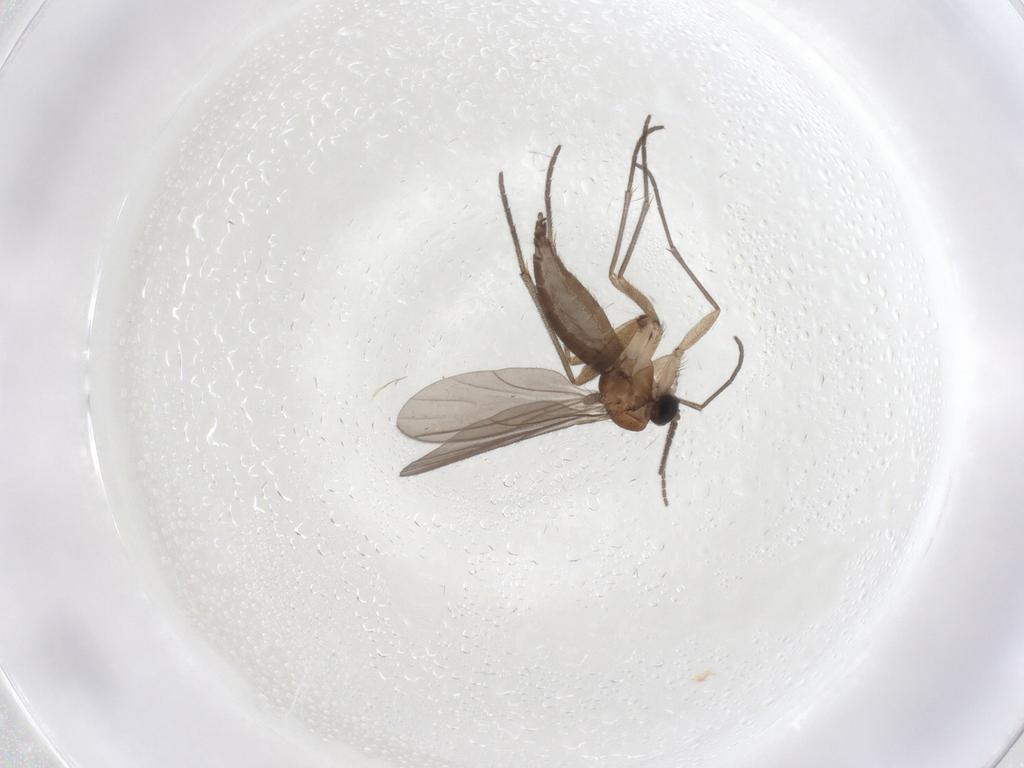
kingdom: Animalia
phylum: Arthropoda
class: Insecta
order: Diptera
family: Sciaridae
